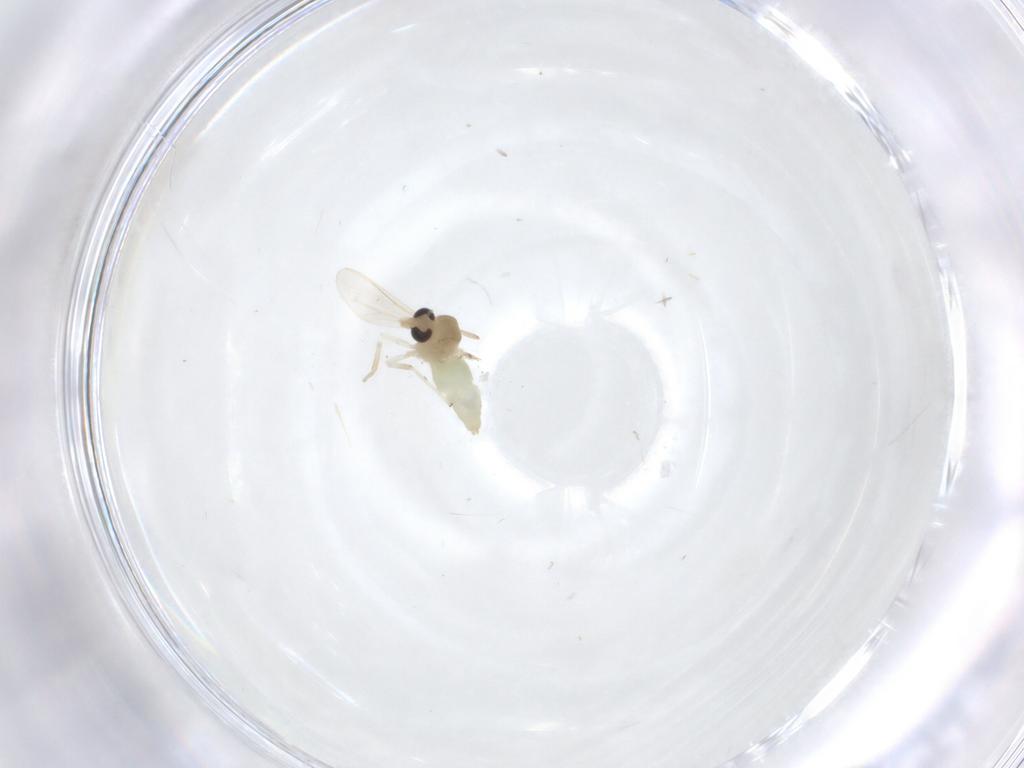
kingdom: Animalia
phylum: Arthropoda
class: Insecta
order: Diptera
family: Chironomidae
